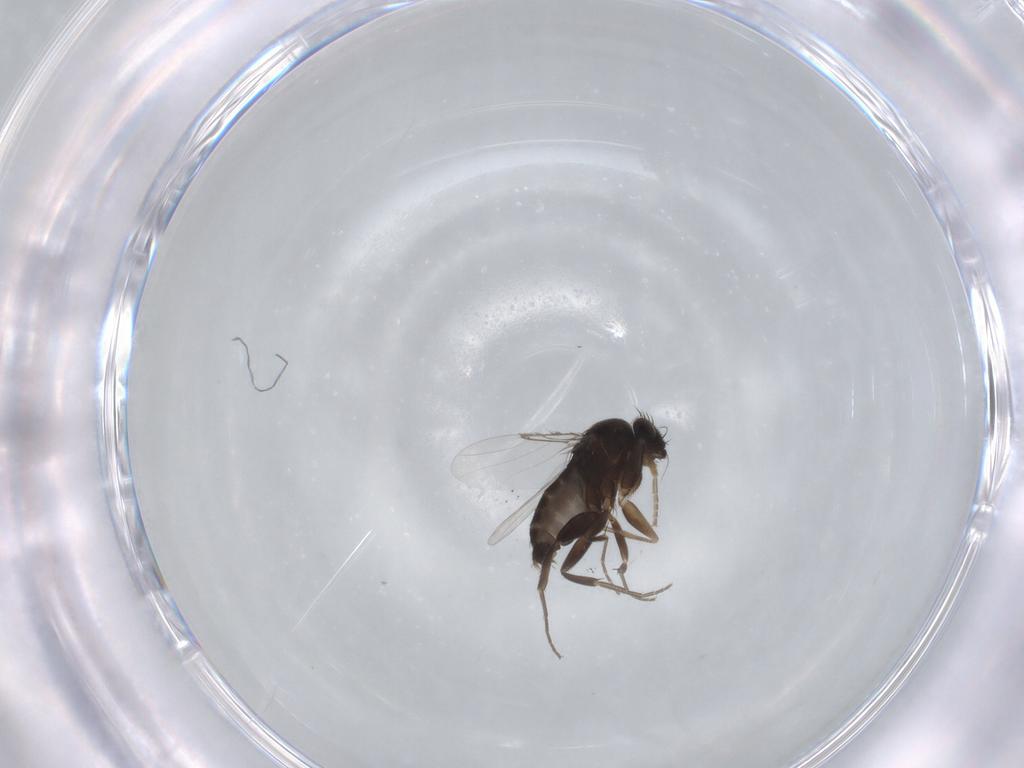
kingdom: Animalia
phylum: Arthropoda
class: Insecta
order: Diptera
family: Phoridae
